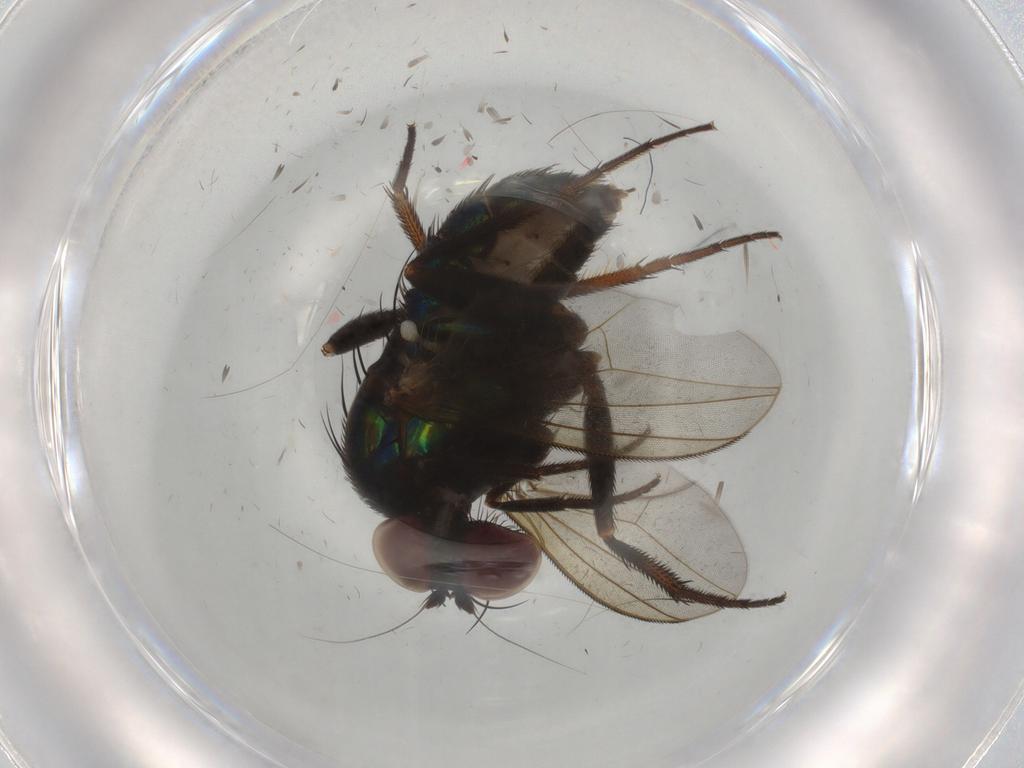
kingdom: Animalia
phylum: Arthropoda
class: Insecta
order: Diptera
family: Dolichopodidae
